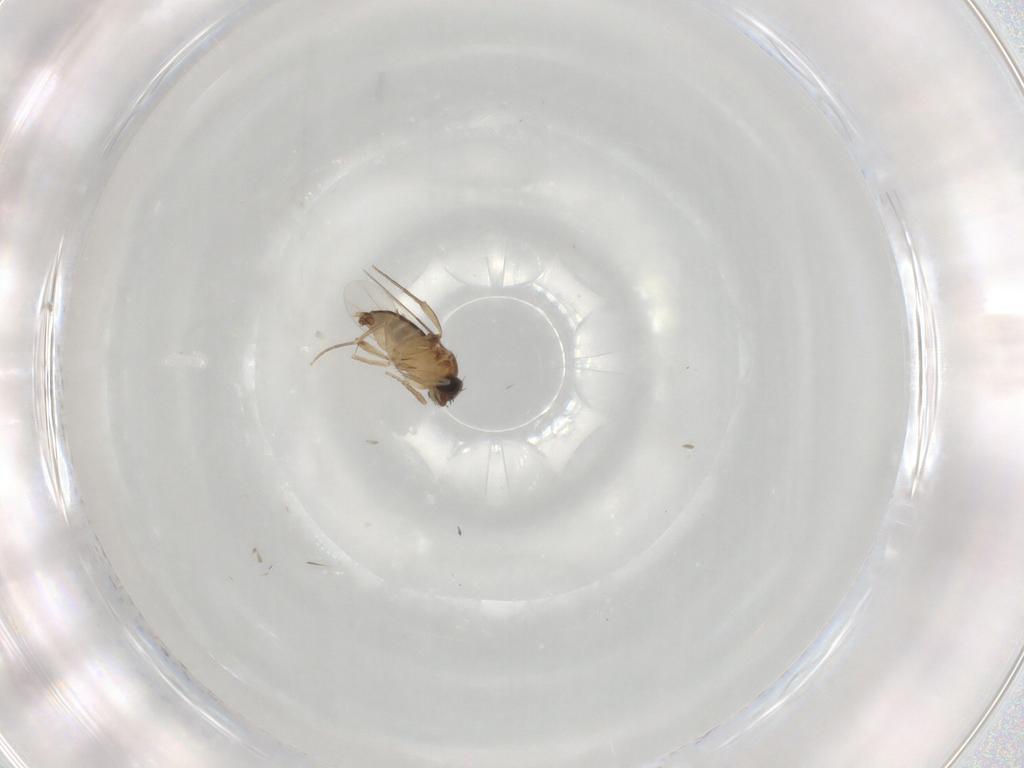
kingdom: Animalia
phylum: Arthropoda
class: Insecta
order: Diptera
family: Phoridae
